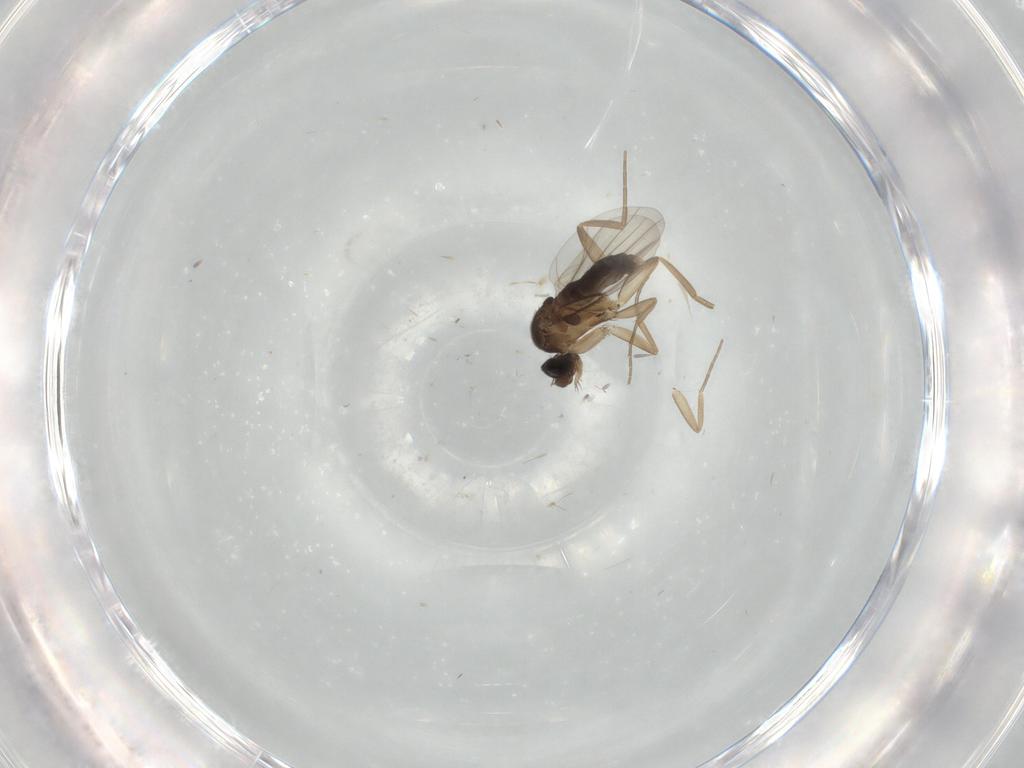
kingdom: Animalia
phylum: Arthropoda
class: Insecta
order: Diptera
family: Phoridae
